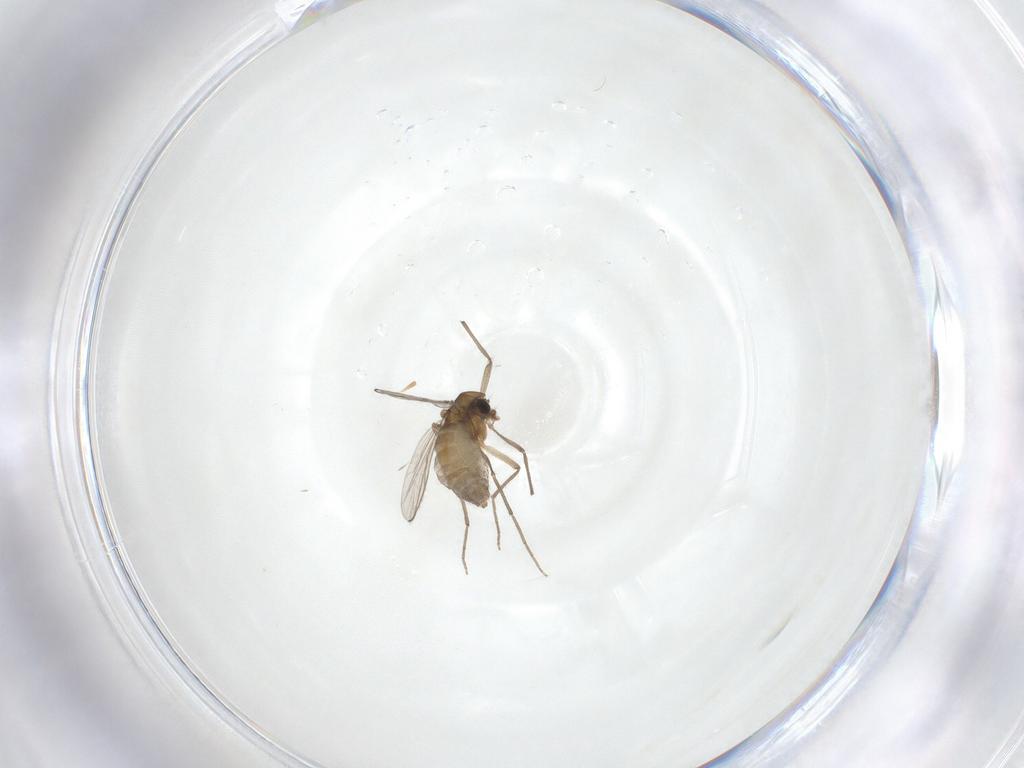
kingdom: Animalia
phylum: Arthropoda
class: Insecta
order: Diptera
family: Chironomidae
